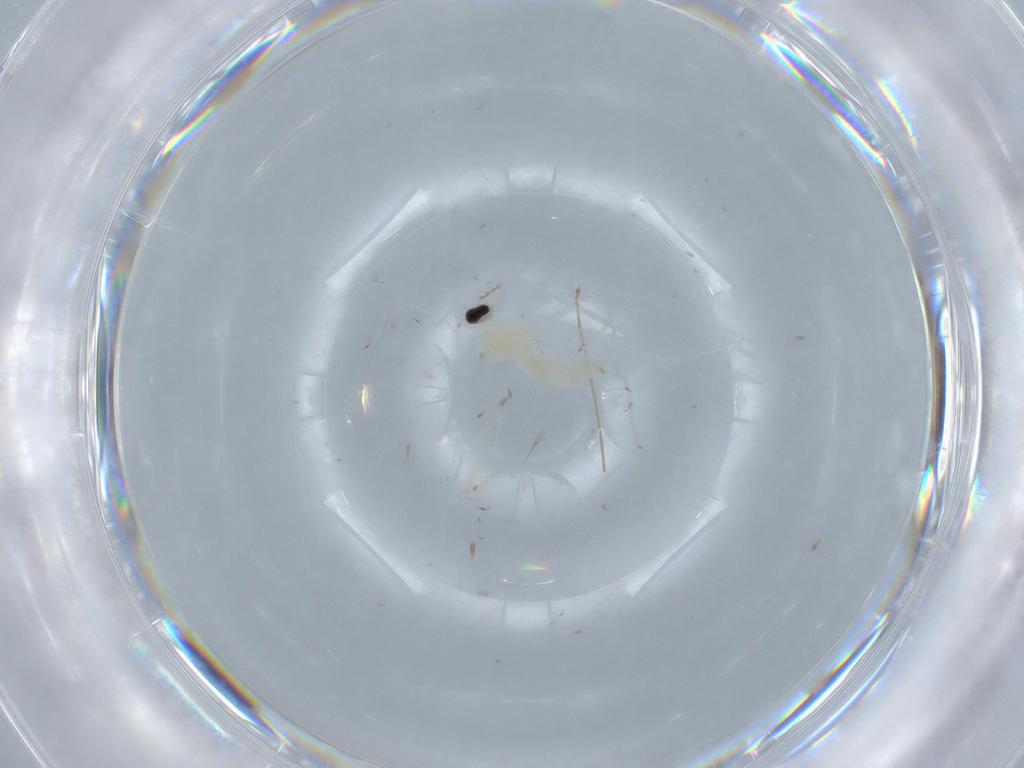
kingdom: Animalia
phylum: Arthropoda
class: Insecta
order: Diptera
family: Cecidomyiidae
